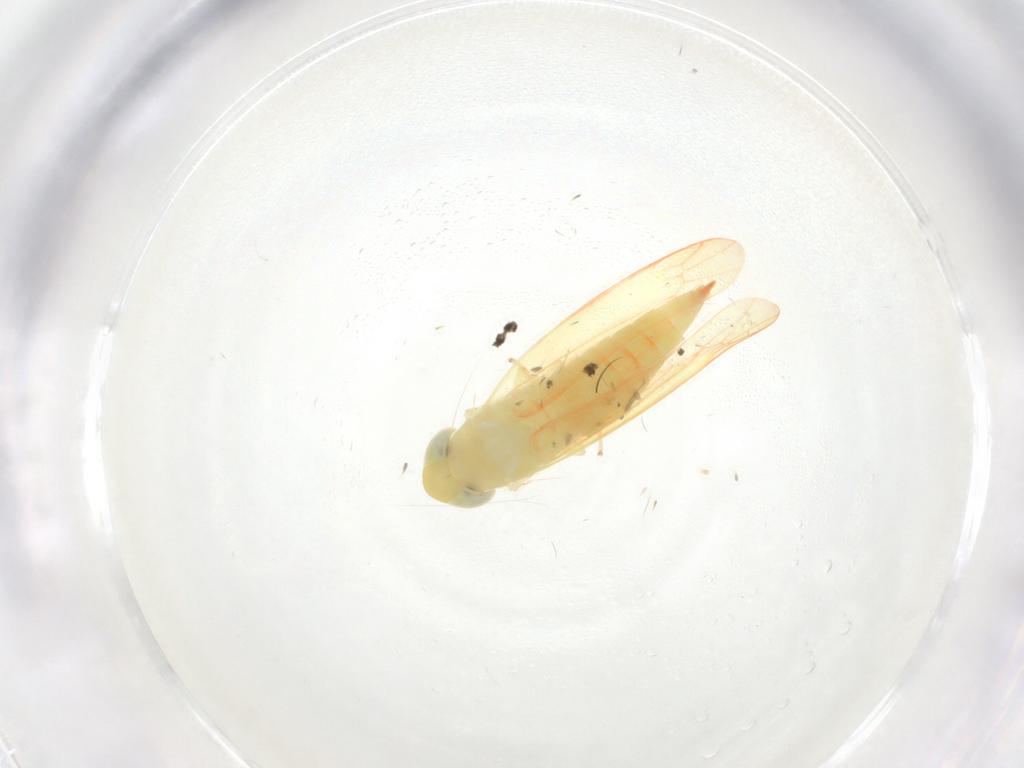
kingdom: Animalia
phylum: Arthropoda
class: Insecta
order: Hemiptera
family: Cicadellidae
